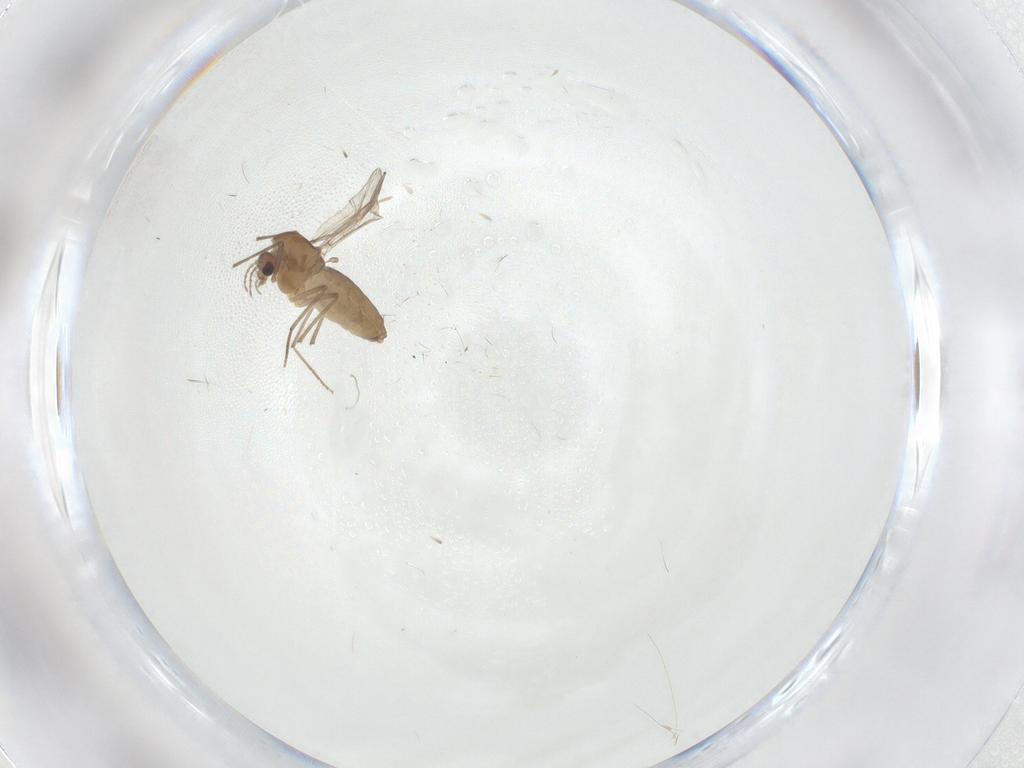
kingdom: Animalia
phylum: Arthropoda
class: Insecta
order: Diptera
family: Chironomidae
